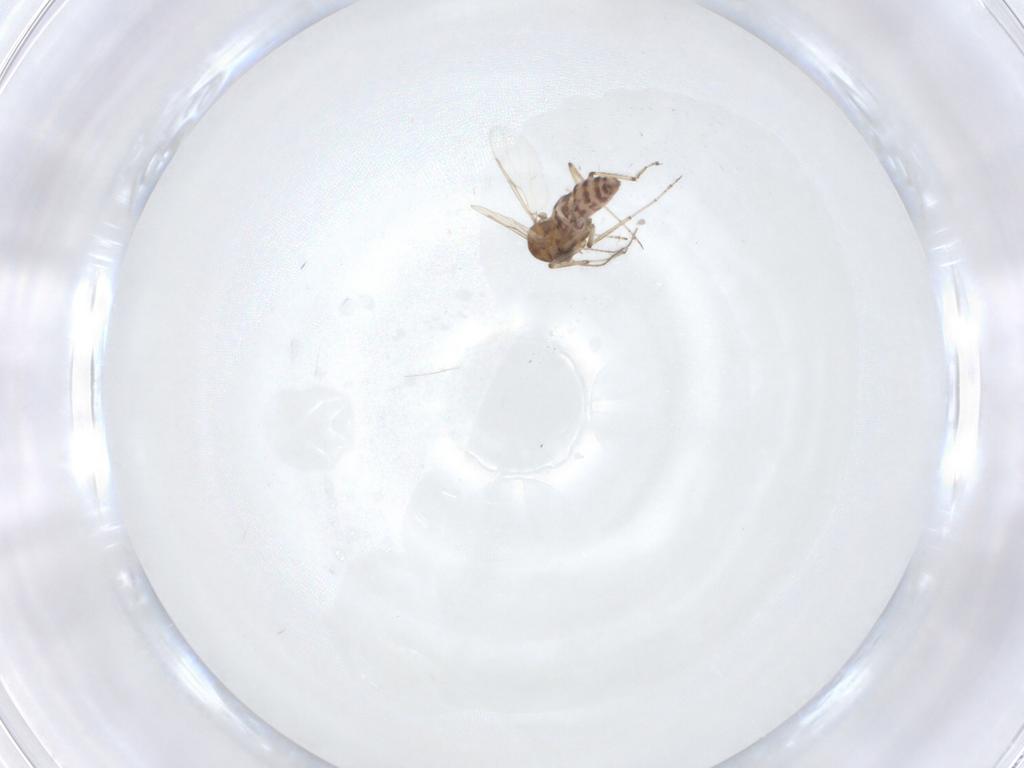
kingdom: Animalia
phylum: Arthropoda
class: Insecta
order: Diptera
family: Ceratopogonidae
